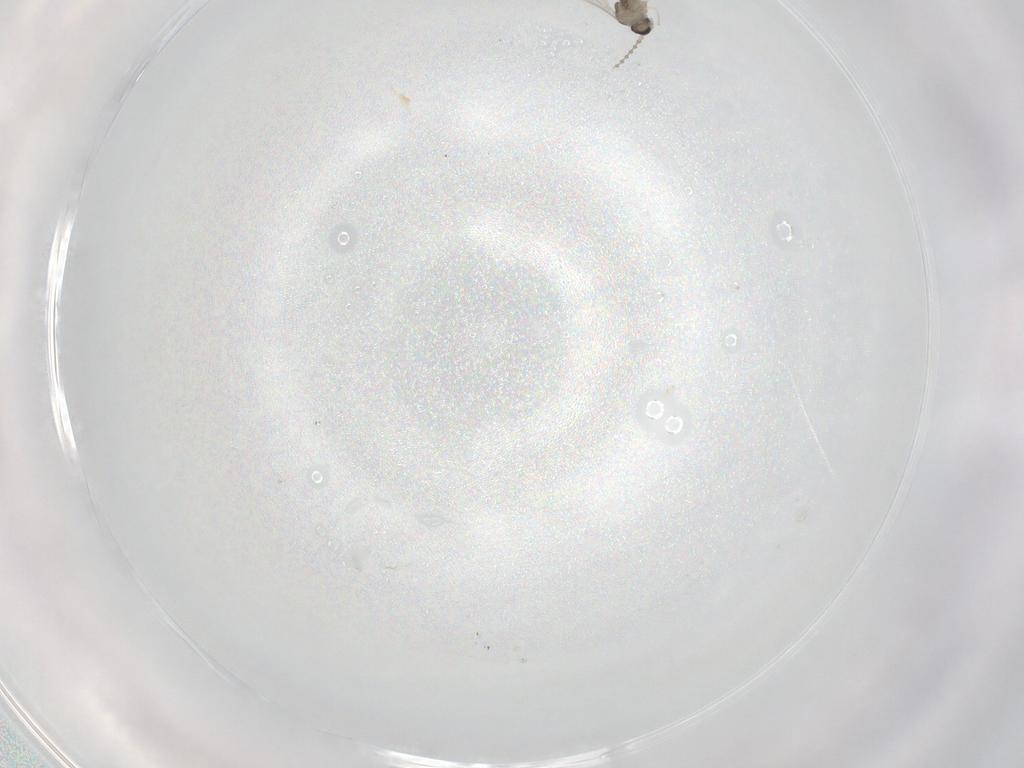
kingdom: Animalia
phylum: Arthropoda
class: Insecta
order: Diptera
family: Cecidomyiidae
